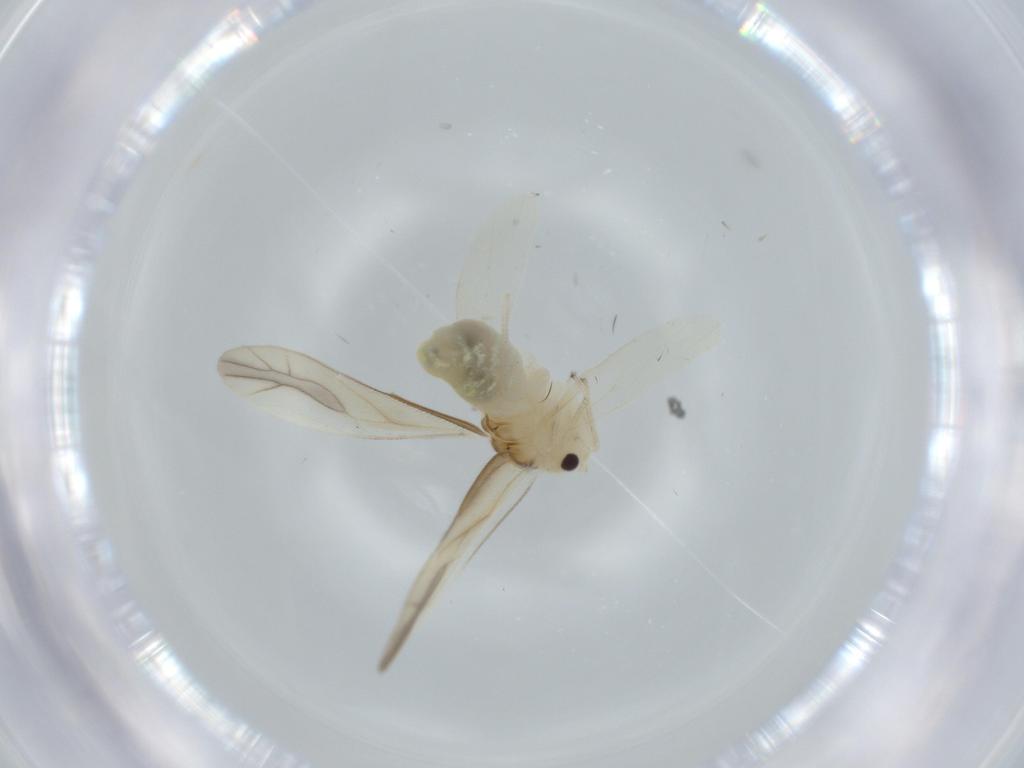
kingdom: Animalia
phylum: Arthropoda
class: Insecta
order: Psocodea
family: Caeciliusidae
